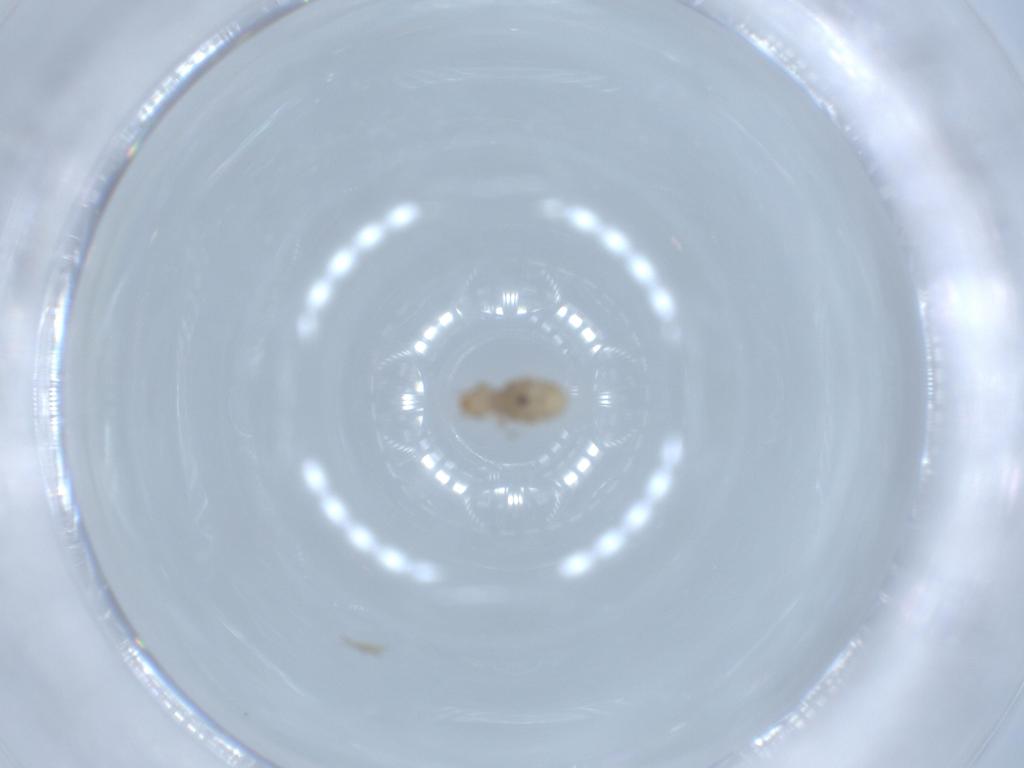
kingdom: Animalia
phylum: Arthropoda
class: Insecta
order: Psocodea
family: Liposcelididae
